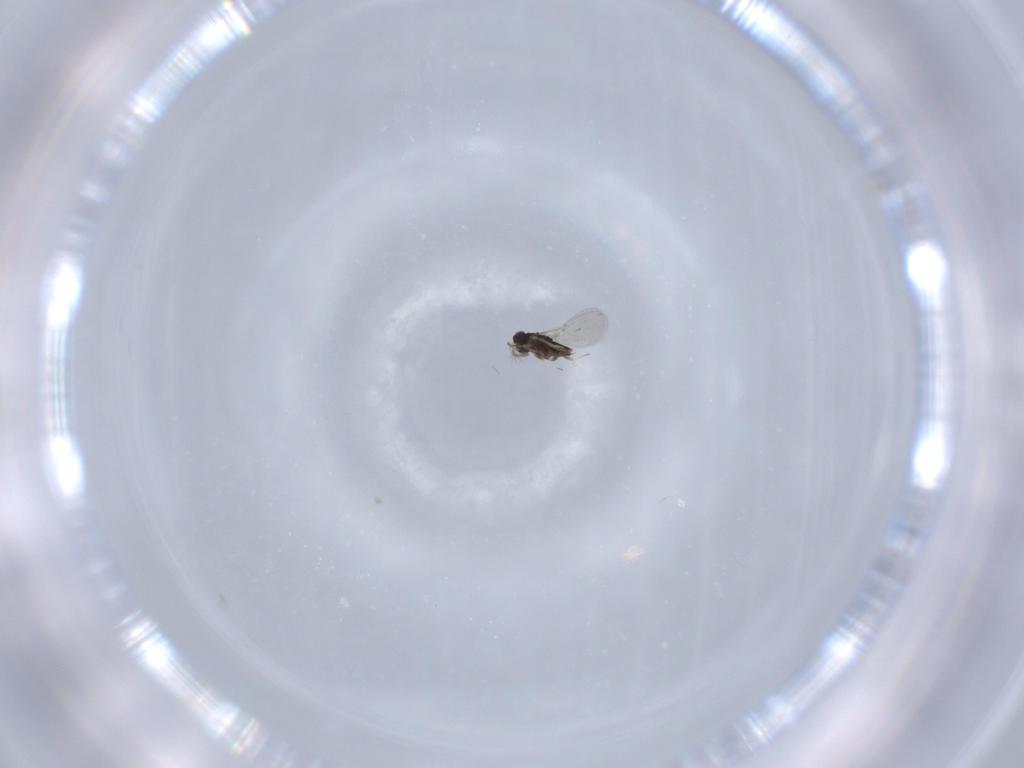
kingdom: Animalia
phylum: Arthropoda
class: Insecta
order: Hymenoptera
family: Encyrtidae
